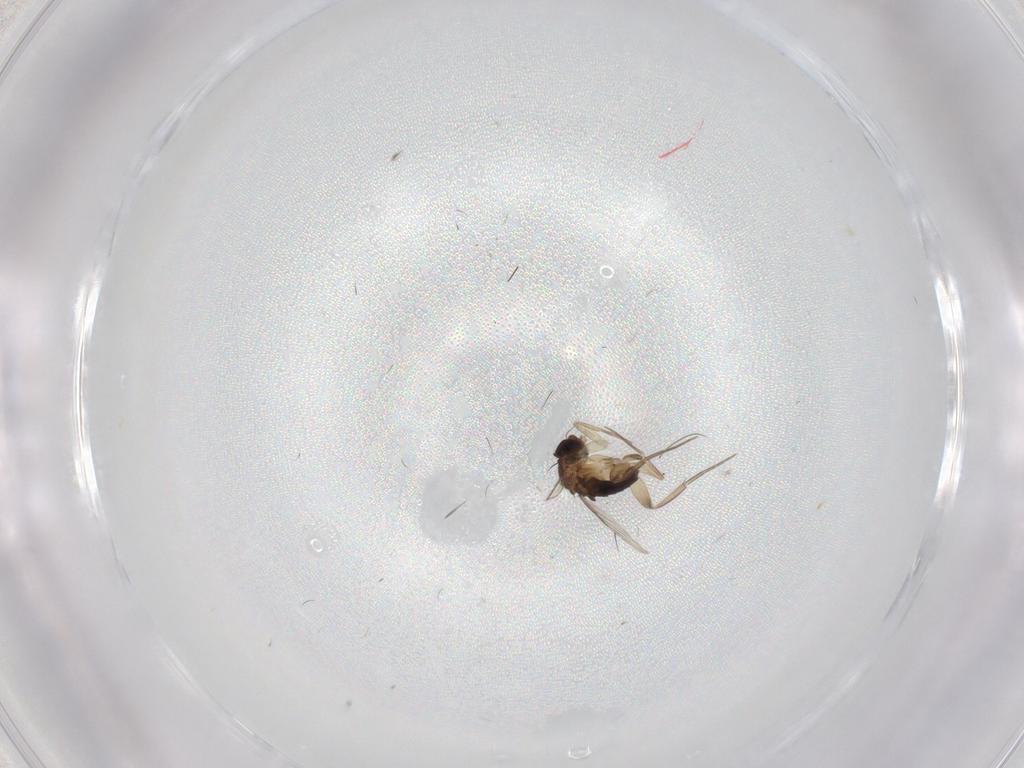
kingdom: Animalia
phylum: Arthropoda
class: Insecta
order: Diptera
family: Phoridae
